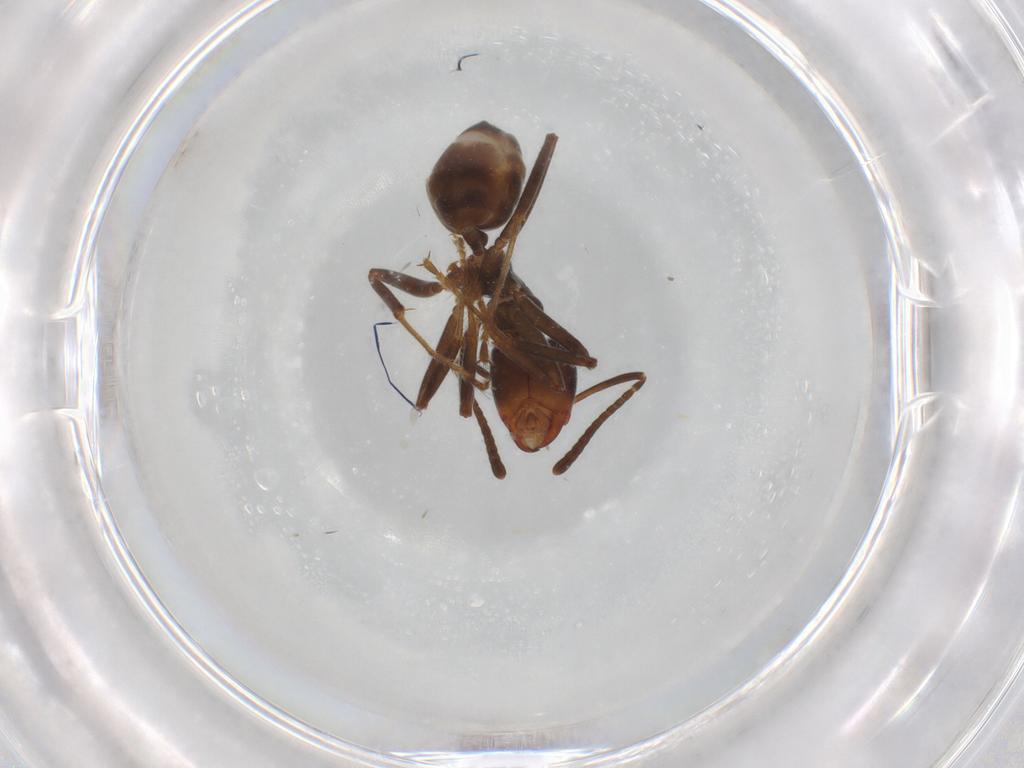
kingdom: Animalia
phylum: Arthropoda
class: Insecta
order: Hymenoptera
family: Formicidae
